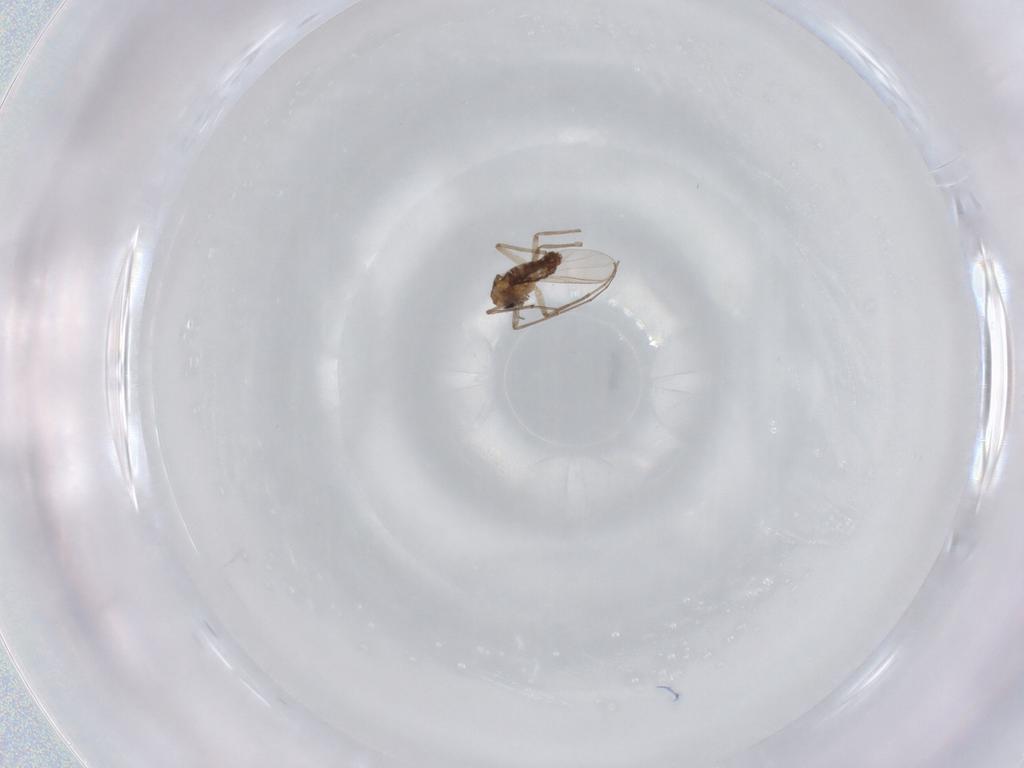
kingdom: Animalia
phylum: Arthropoda
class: Insecta
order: Diptera
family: Chironomidae
